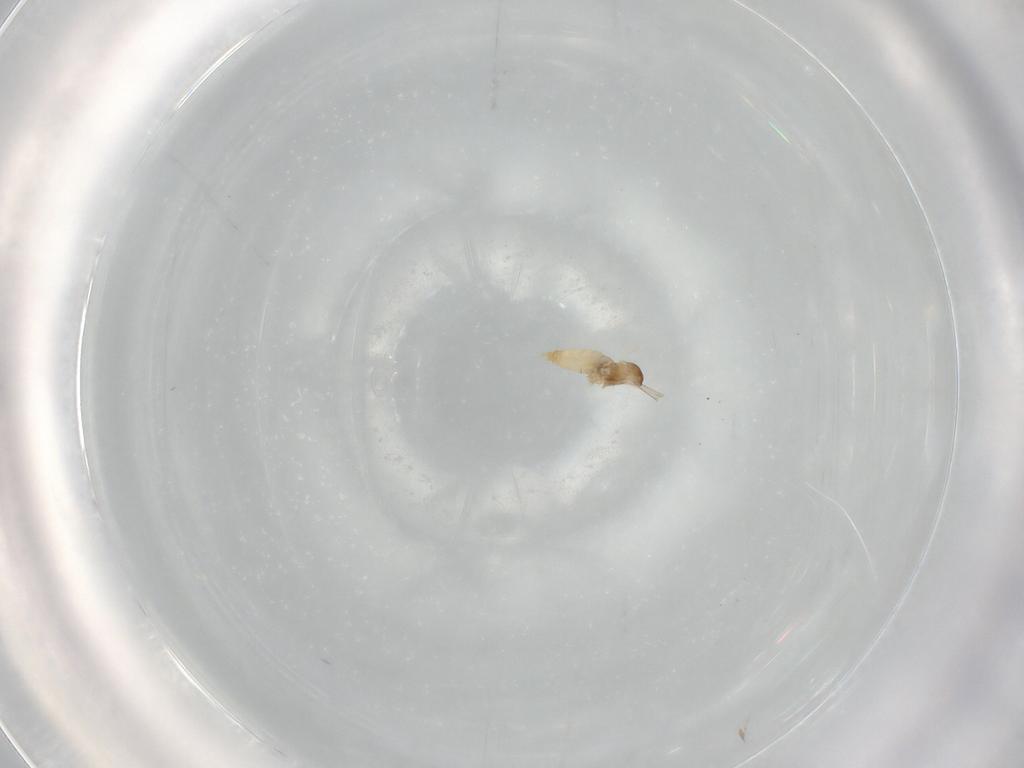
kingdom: Animalia
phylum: Arthropoda
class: Insecta
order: Diptera
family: Cecidomyiidae
